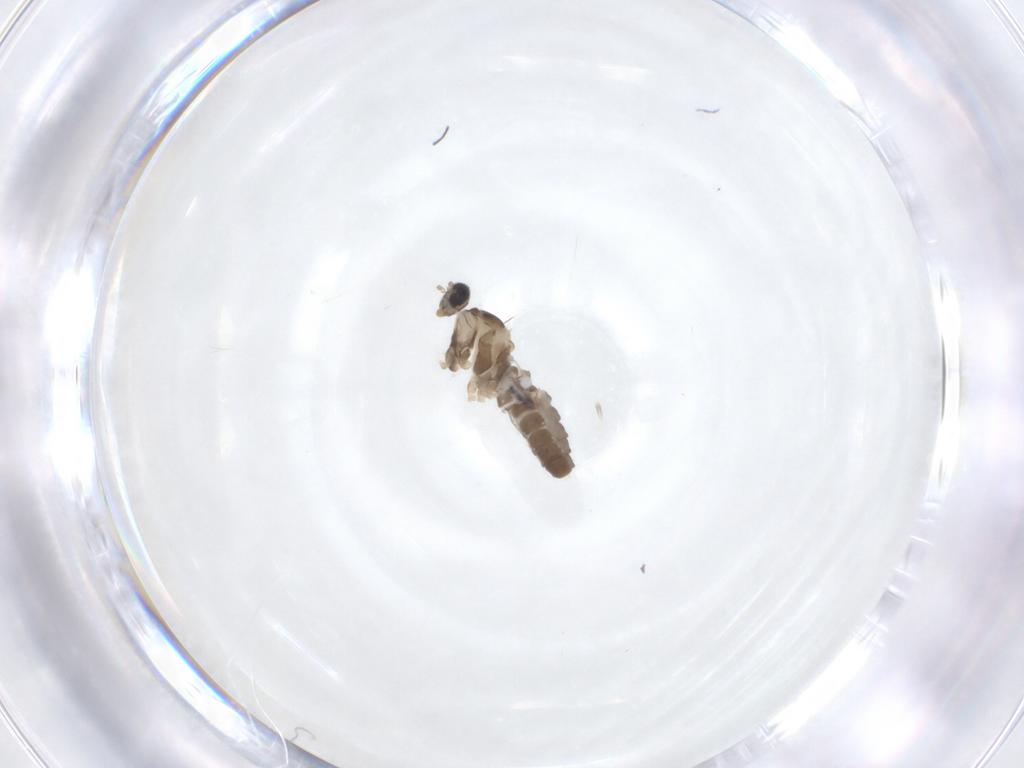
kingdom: Animalia
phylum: Arthropoda
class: Insecta
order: Diptera
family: Cecidomyiidae
